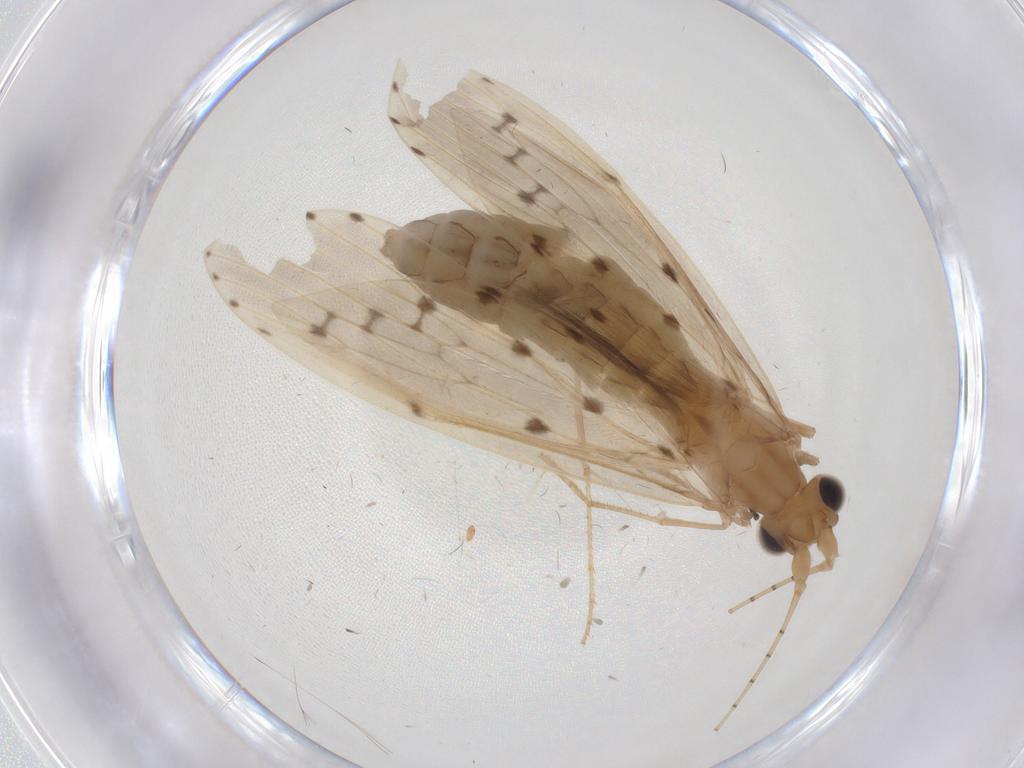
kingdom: Animalia
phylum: Arthropoda
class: Insecta
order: Trichoptera
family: Leptoceridae
